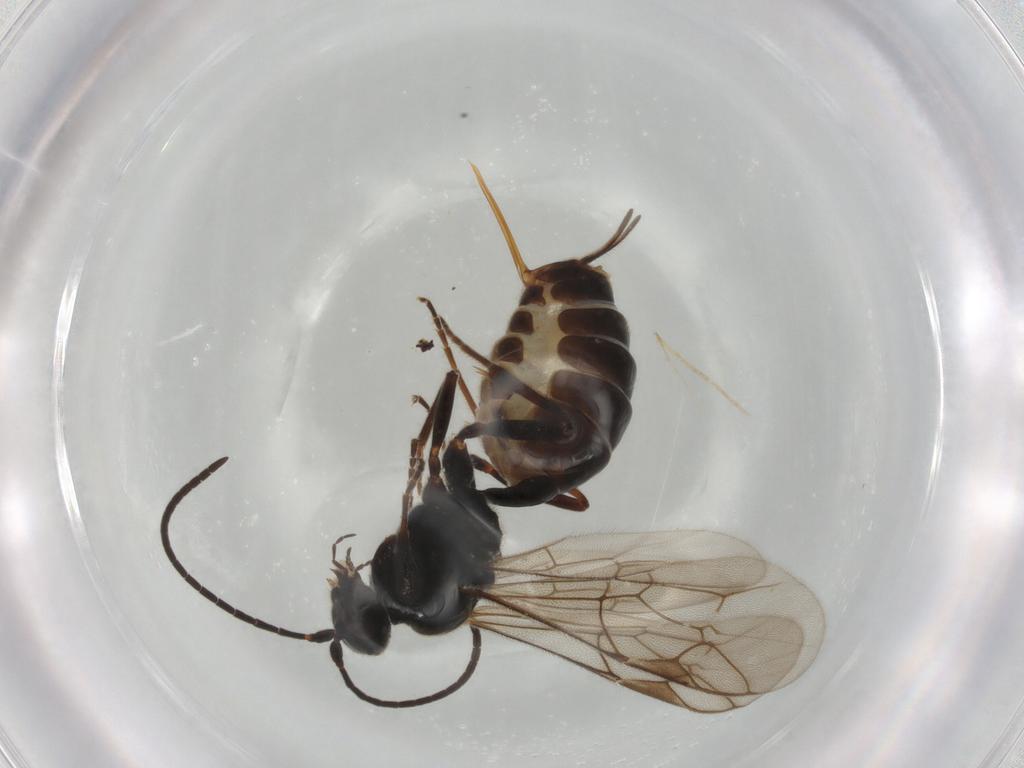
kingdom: Animalia
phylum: Arthropoda
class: Insecta
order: Hymenoptera
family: Ichneumonidae
